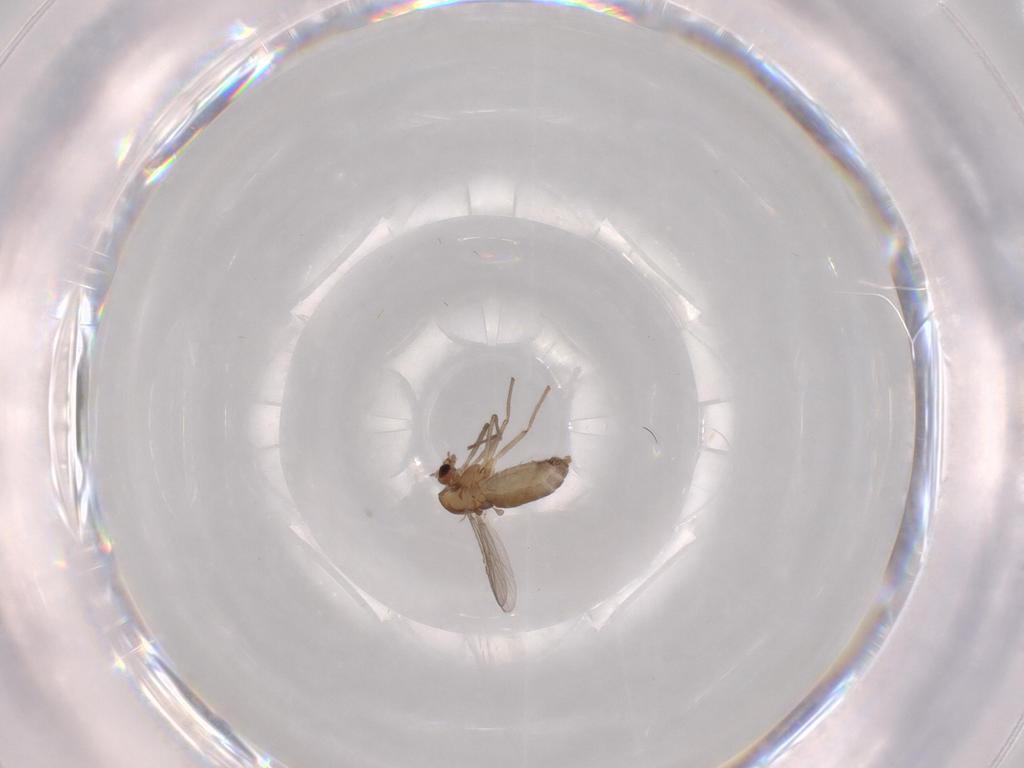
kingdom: Animalia
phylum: Arthropoda
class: Insecta
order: Diptera
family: Chironomidae
